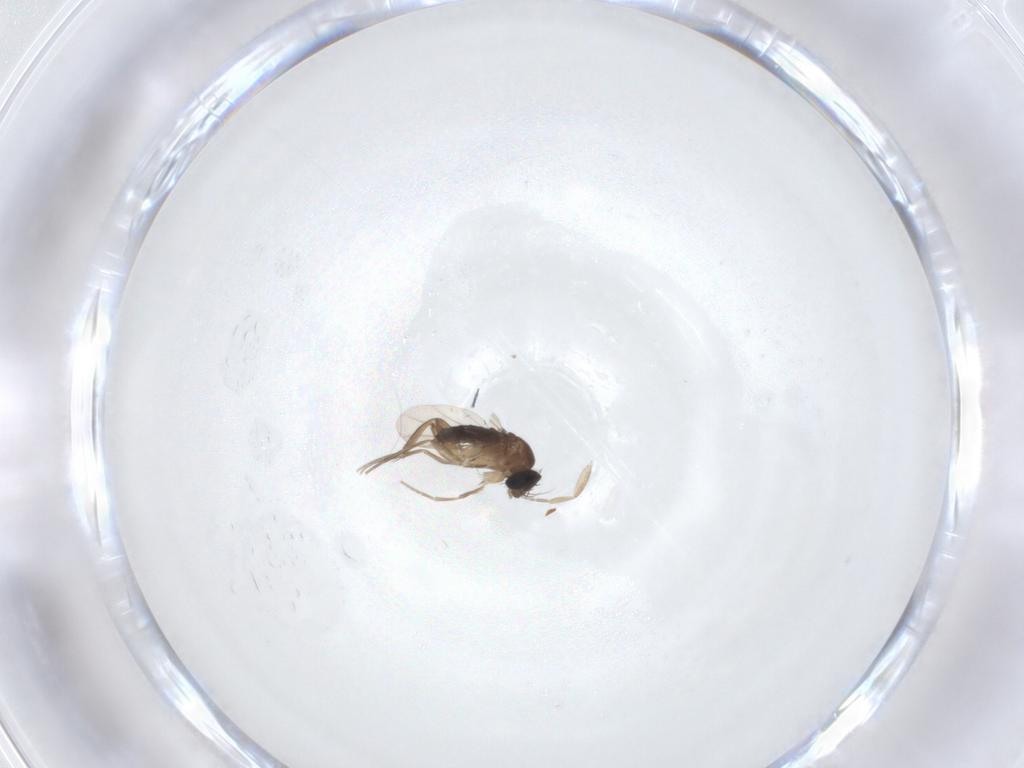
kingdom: Animalia
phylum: Arthropoda
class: Insecta
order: Diptera
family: Phoridae
